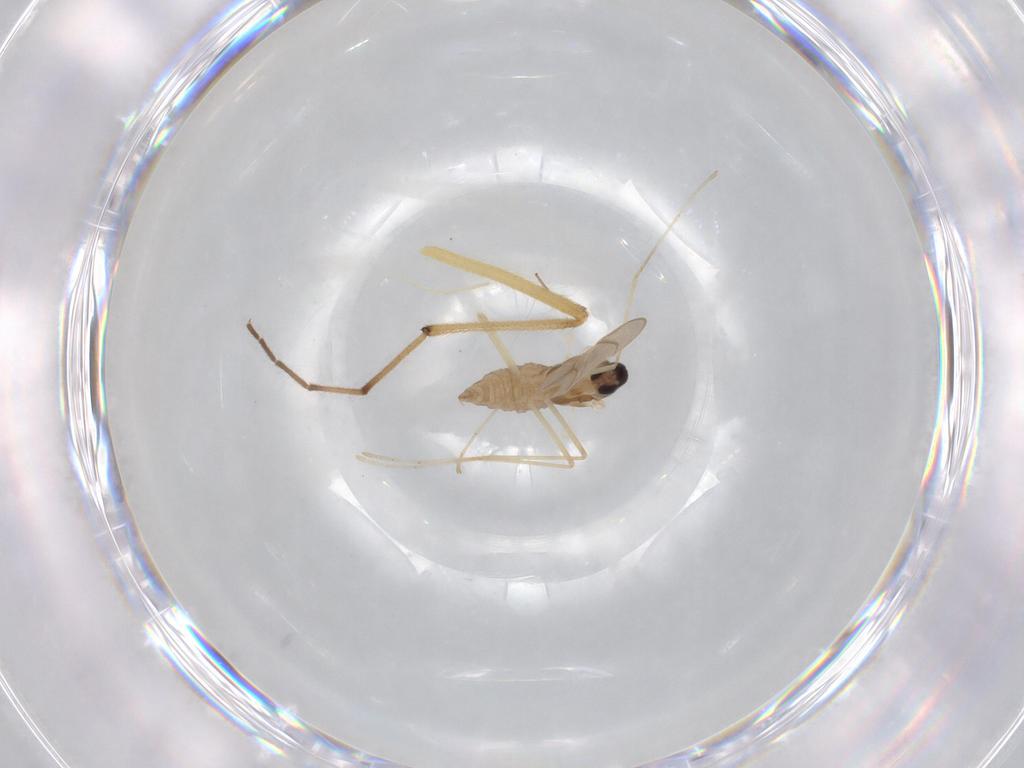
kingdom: Animalia
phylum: Arthropoda
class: Insecta
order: Diptera
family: Cecidomyiidae
